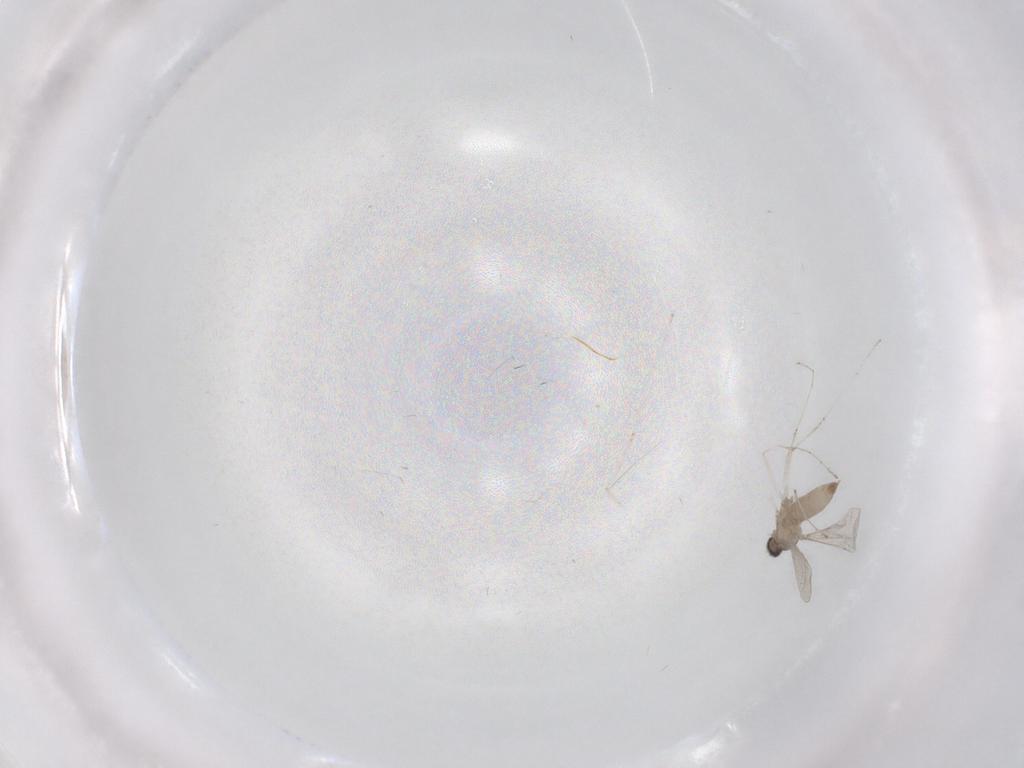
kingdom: Animalia
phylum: Arthropoda
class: Insecta
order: Diptera
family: Cecidomyiidae
